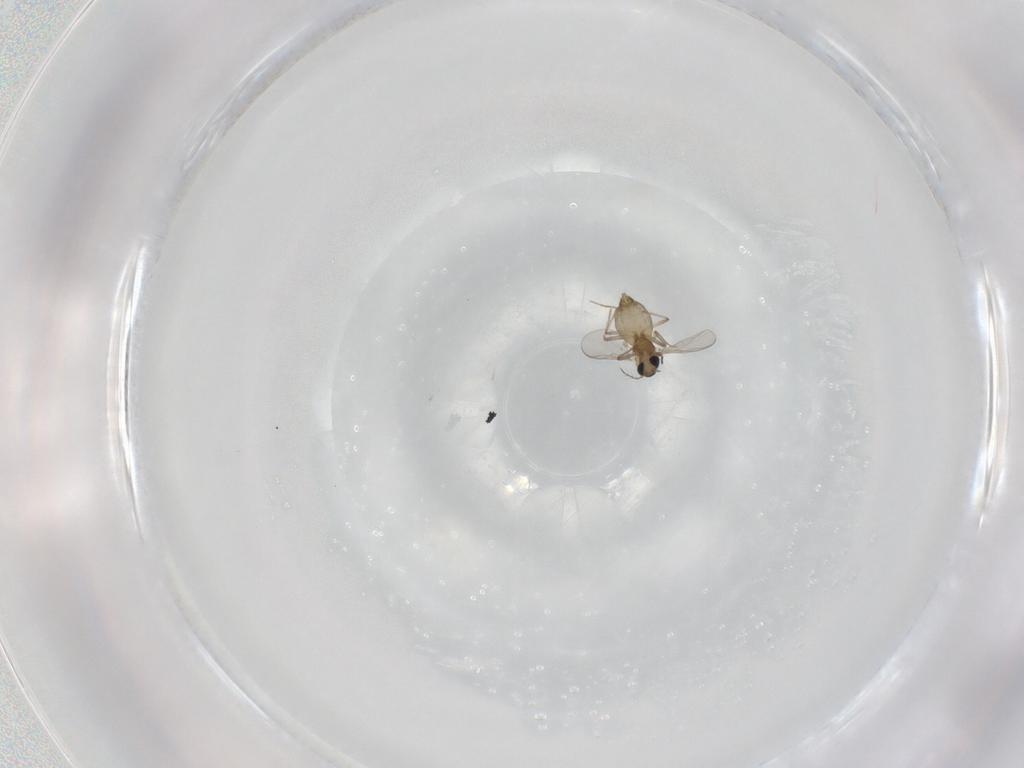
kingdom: Animalia
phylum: Arthropoda
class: Insecta
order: Diptera
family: Chironomidae
